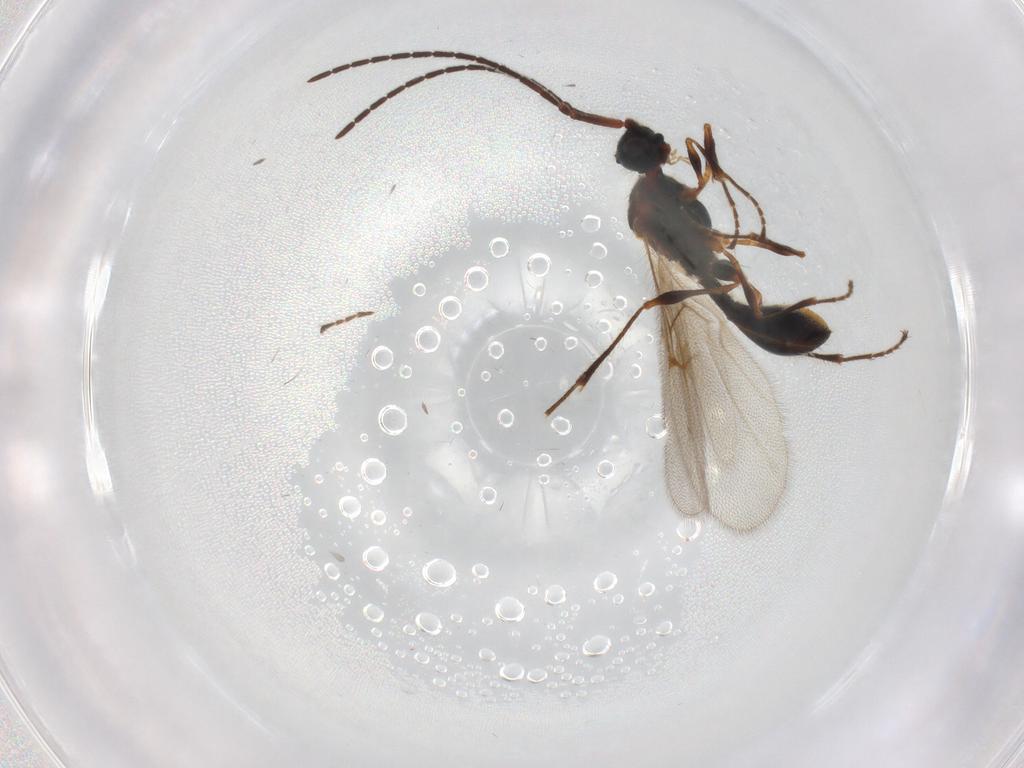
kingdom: Animalia
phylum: Arthropoda
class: Insecta
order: Hymenoptera
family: Diapriidae
